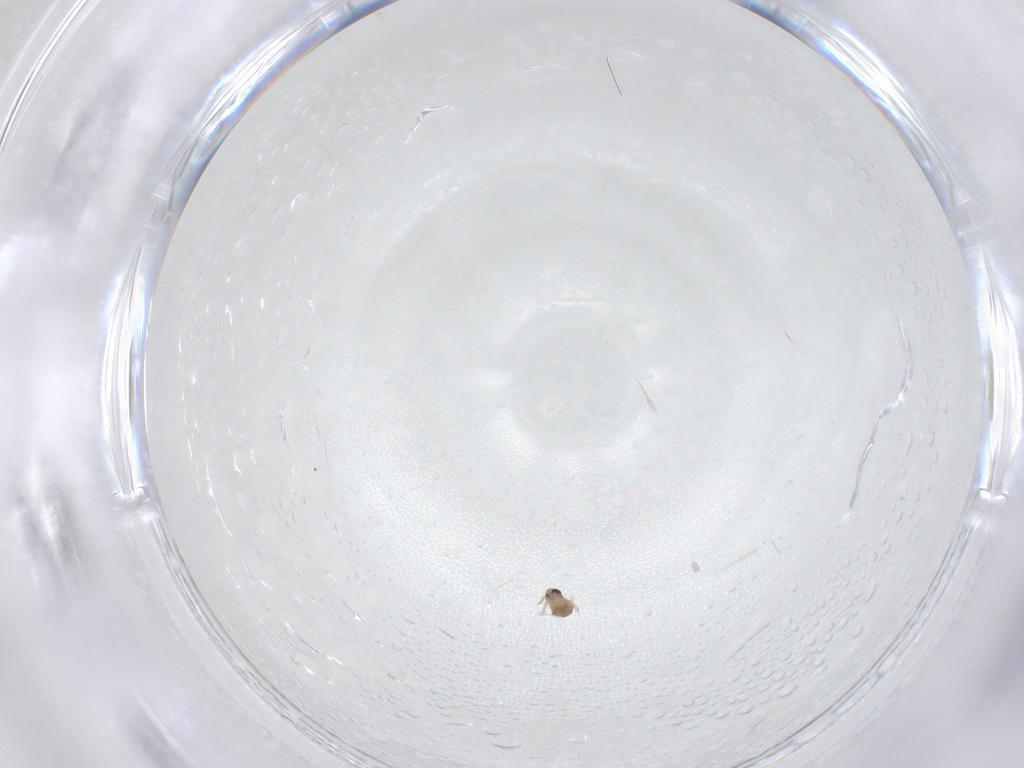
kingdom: Animalia
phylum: Arthropoda
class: Insecta
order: Diptera
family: Cecidomyiidae
